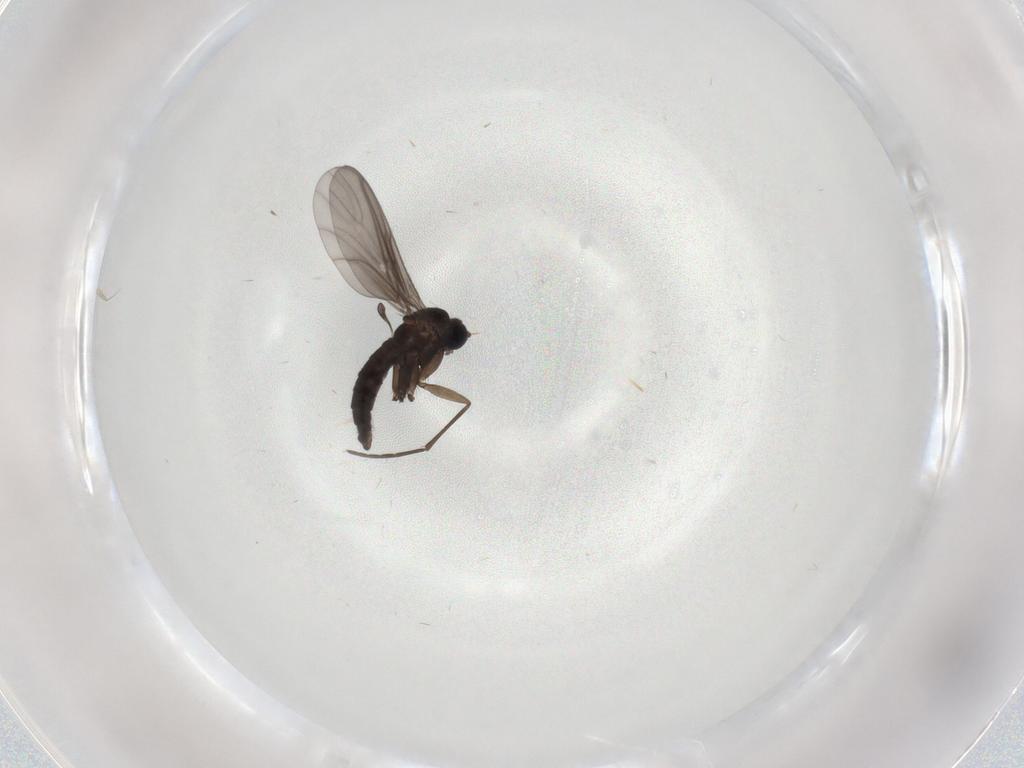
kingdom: Animalia
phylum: Arthropoda
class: Insecta
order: Diptera
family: Sciaridae
